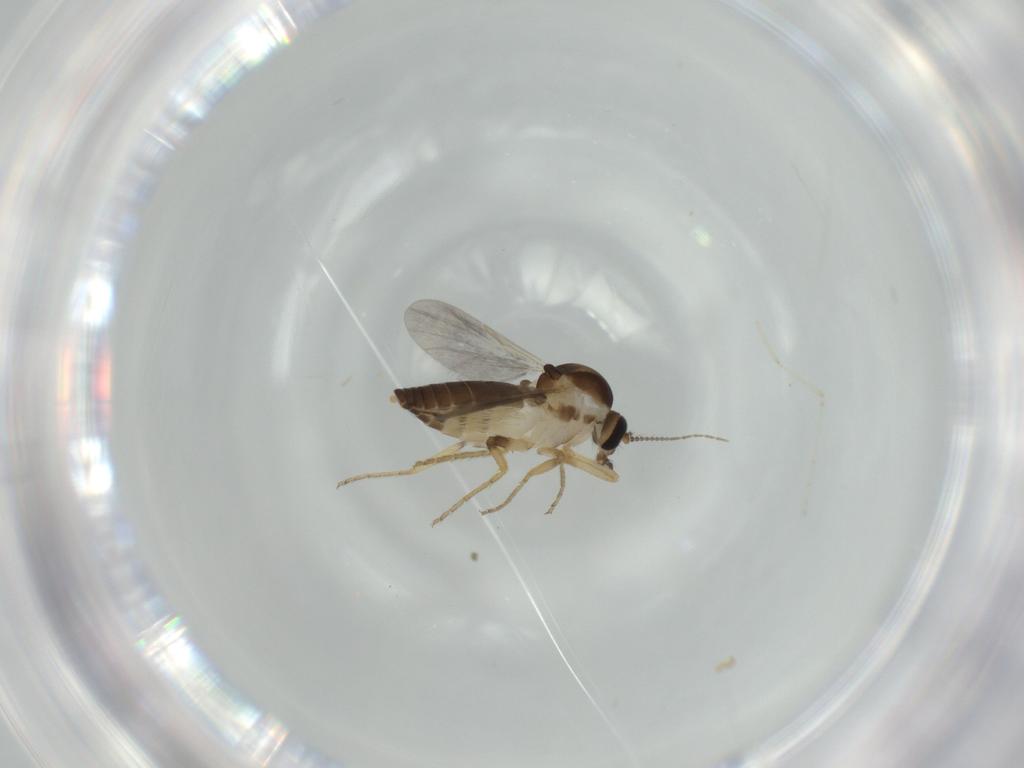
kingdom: Animalia
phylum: Arthropoda
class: Insecta
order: Diptera
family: Ceratopogonidae
